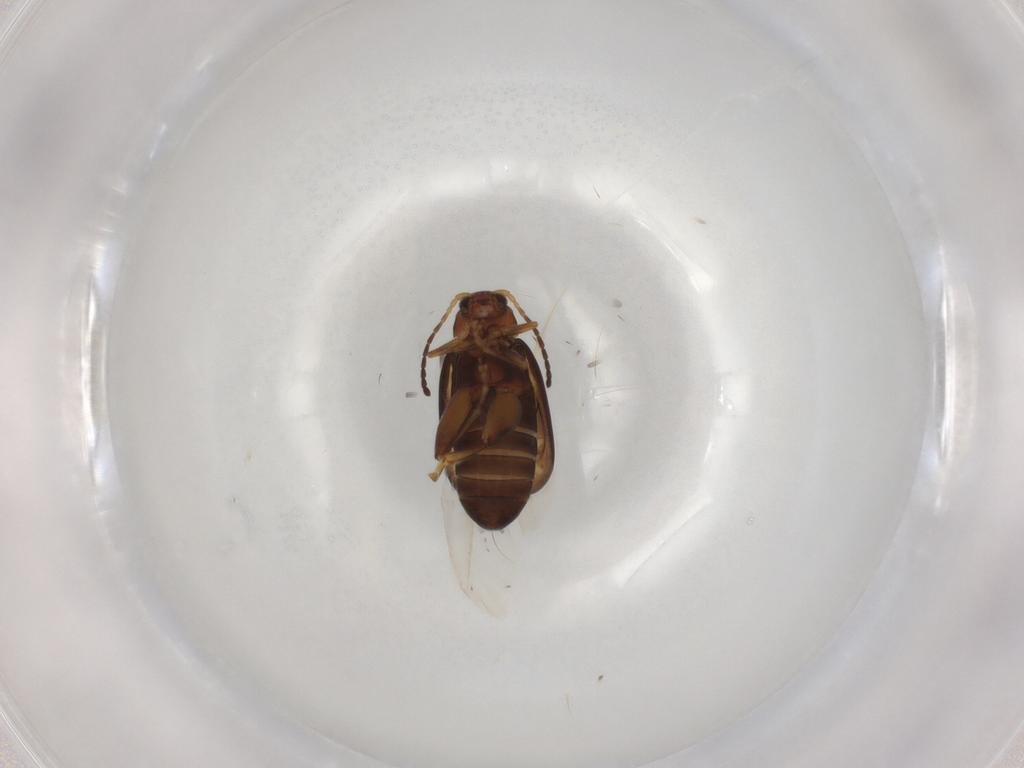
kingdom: Animalia
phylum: Arthropoda
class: Insecta
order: Coleoptera
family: Chrysomelidae
